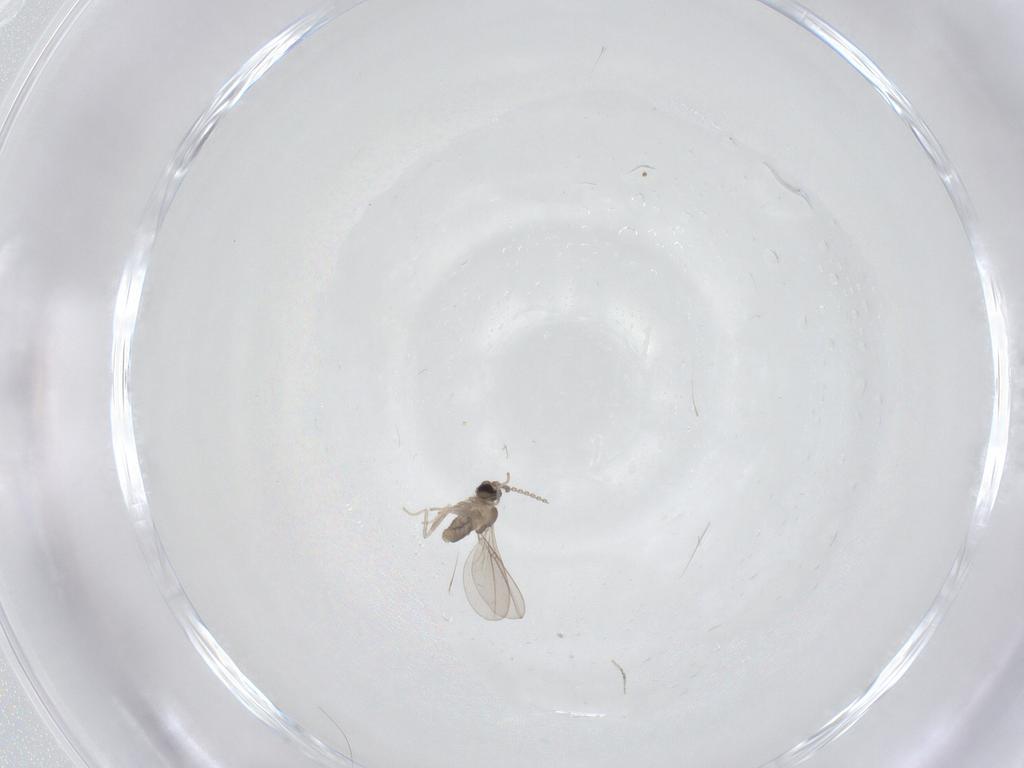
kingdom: Animalia
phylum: Arthropoda
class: Insecta
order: Diptera
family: Cecidomyiidae
